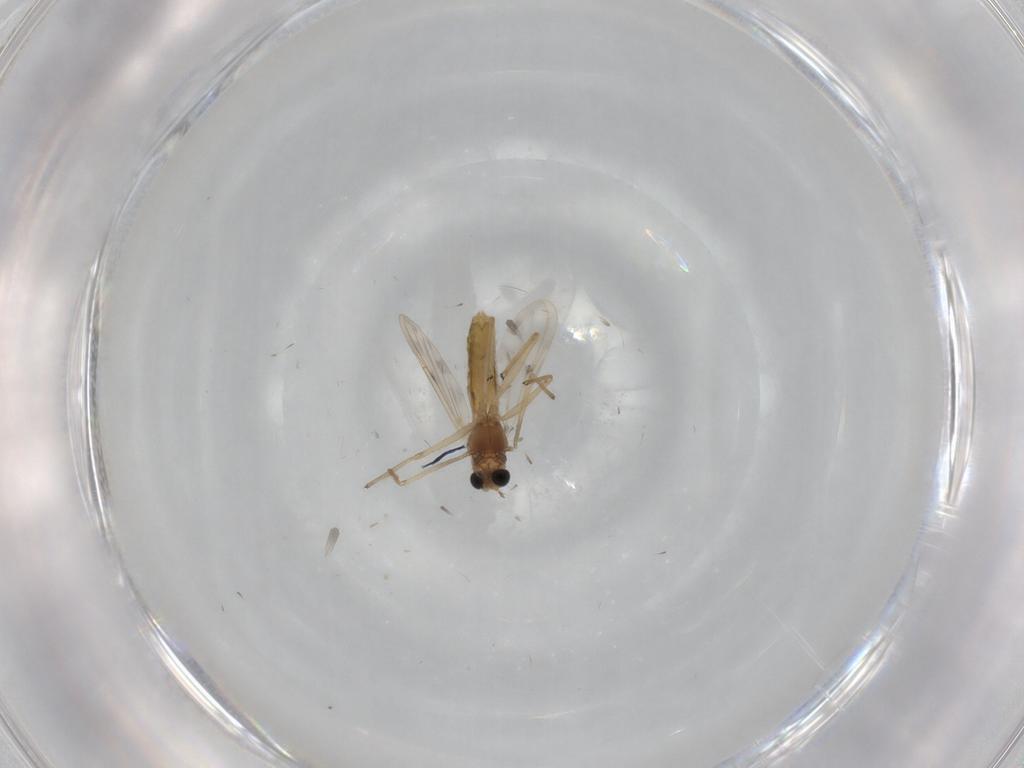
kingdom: Animalia
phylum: Arthropoda
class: Insecta
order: Diptera
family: Chironomidae
